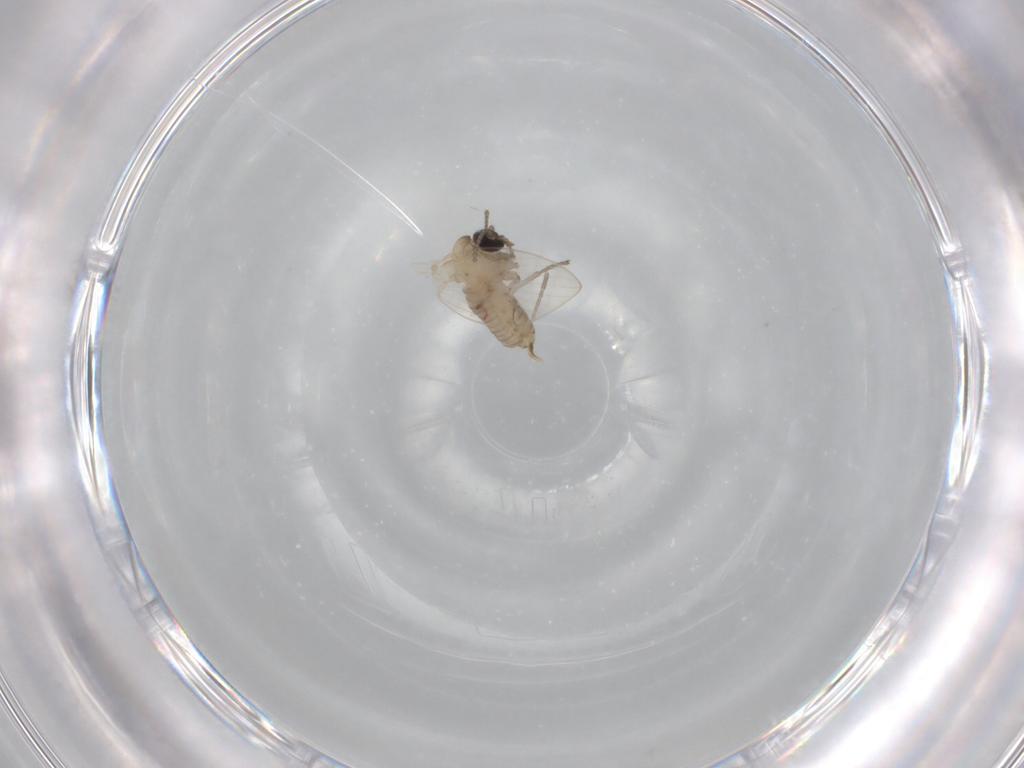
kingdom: Animalia
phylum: Arthropoda
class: Insecta
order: Diptera
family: Psychodidae
